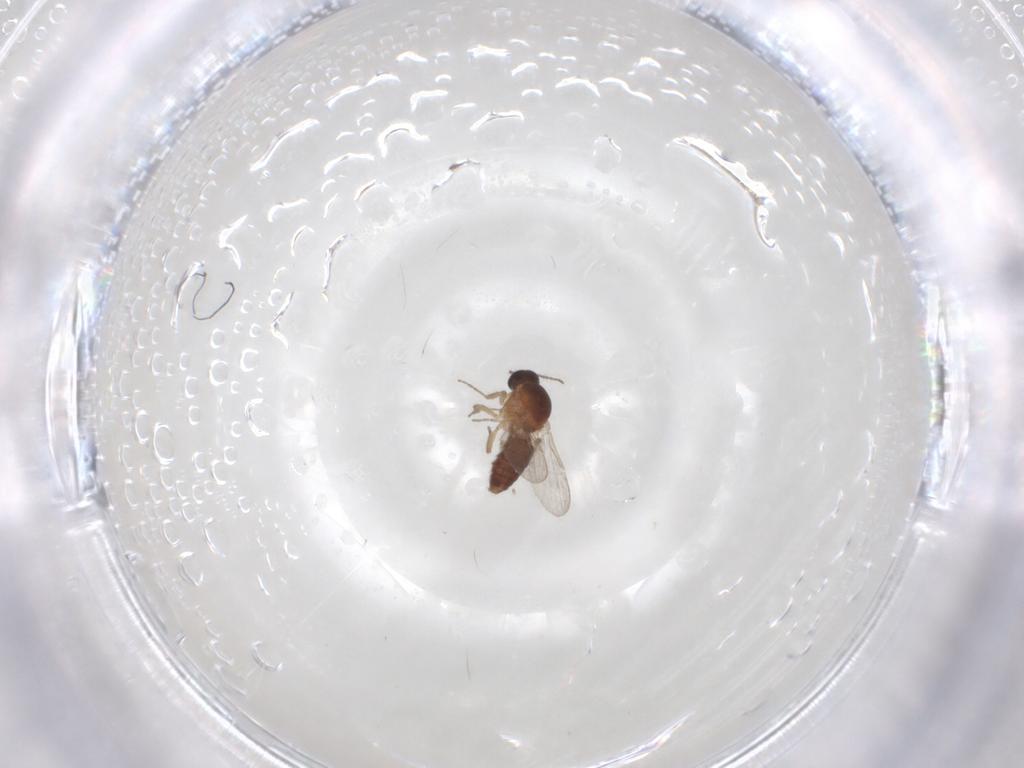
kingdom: Animalia
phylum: Arthropoda
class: Insecta
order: Diptera
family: Ceratopogonidae
